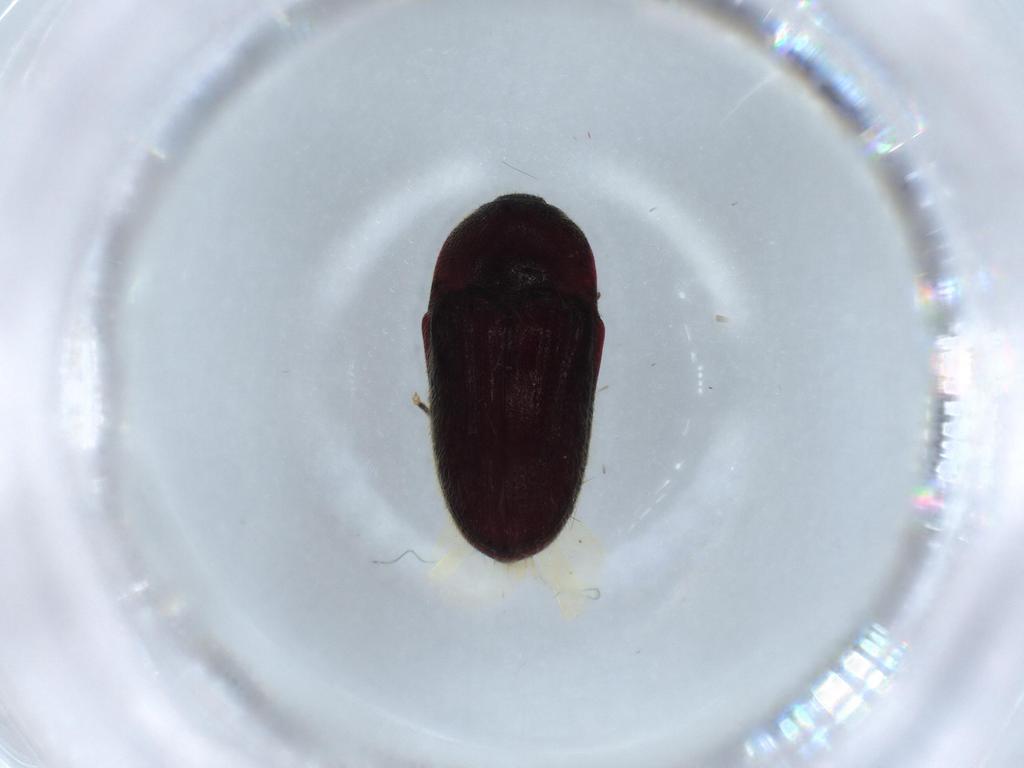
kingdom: Animalia
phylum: Arthropoda
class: Insecta
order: Coleoptera
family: Throscidae
